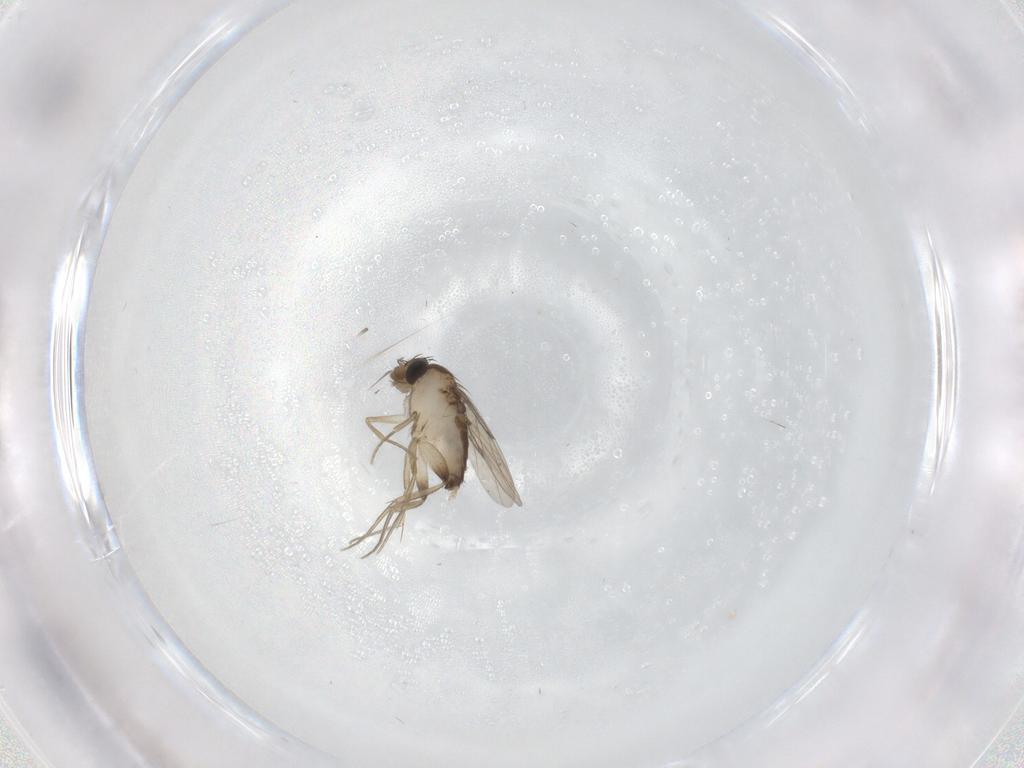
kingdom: Animalia
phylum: Arthropoda
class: Insecta
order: Diptera
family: Phoridae
